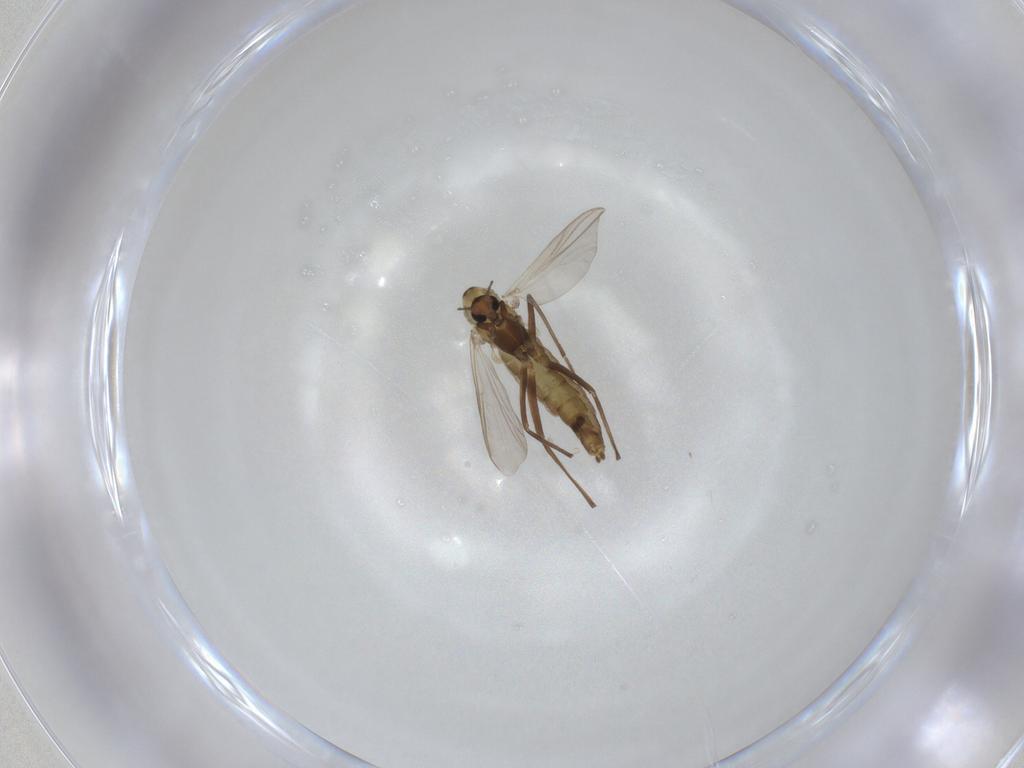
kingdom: Animalia
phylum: Arthropoda
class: Insecta
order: Diptera
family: Chironomidae
